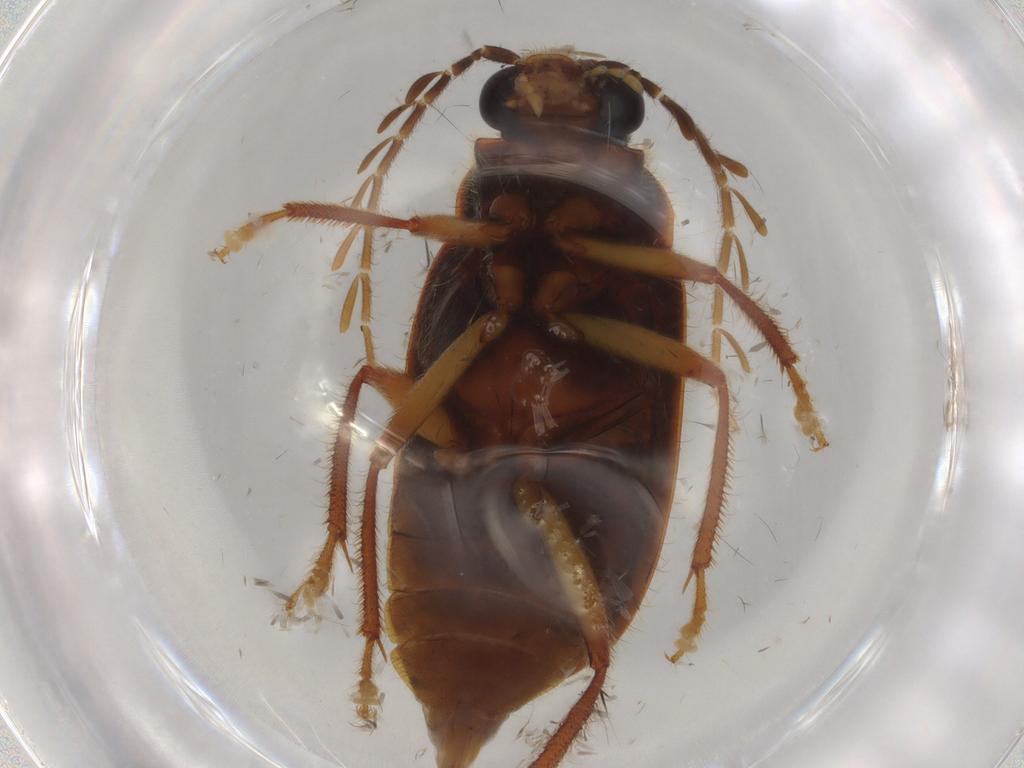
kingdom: Animalia
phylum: Arthropoda
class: Insecta
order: Coleoptera
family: Ptilodactylidae
